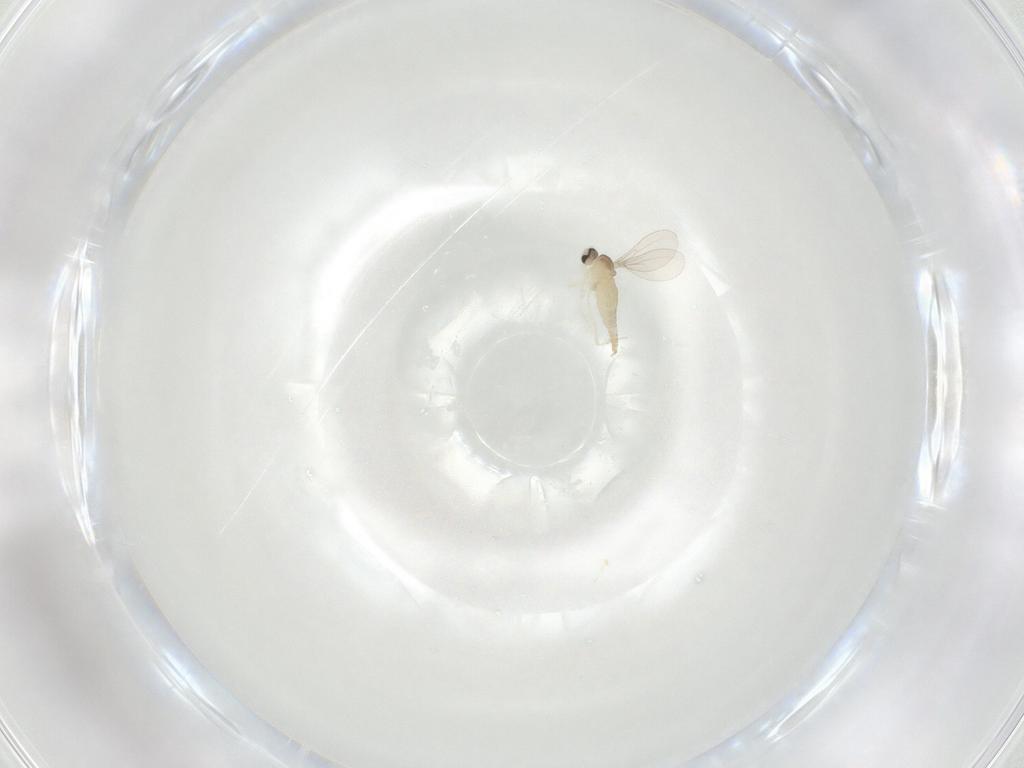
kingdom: Animalia
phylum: Arthropoda
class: Insecta
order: Diptera
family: Cecidomyiidae
